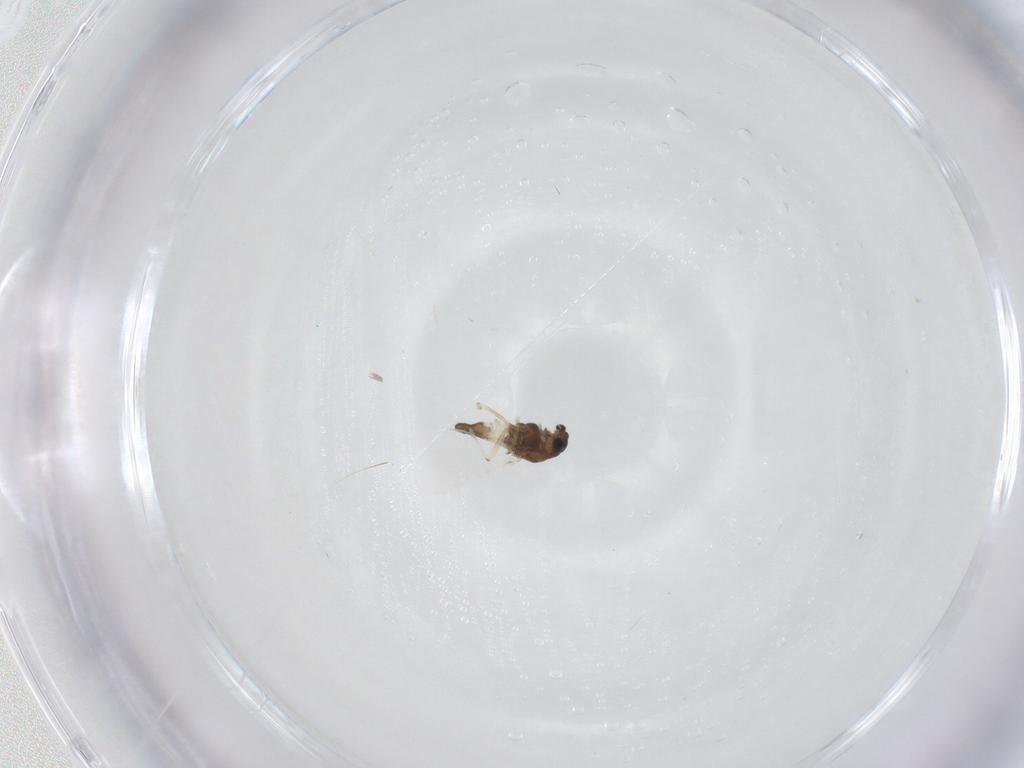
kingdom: Animalia
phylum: Arthropoda
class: Insecta
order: Diptera
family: Chironomidae
